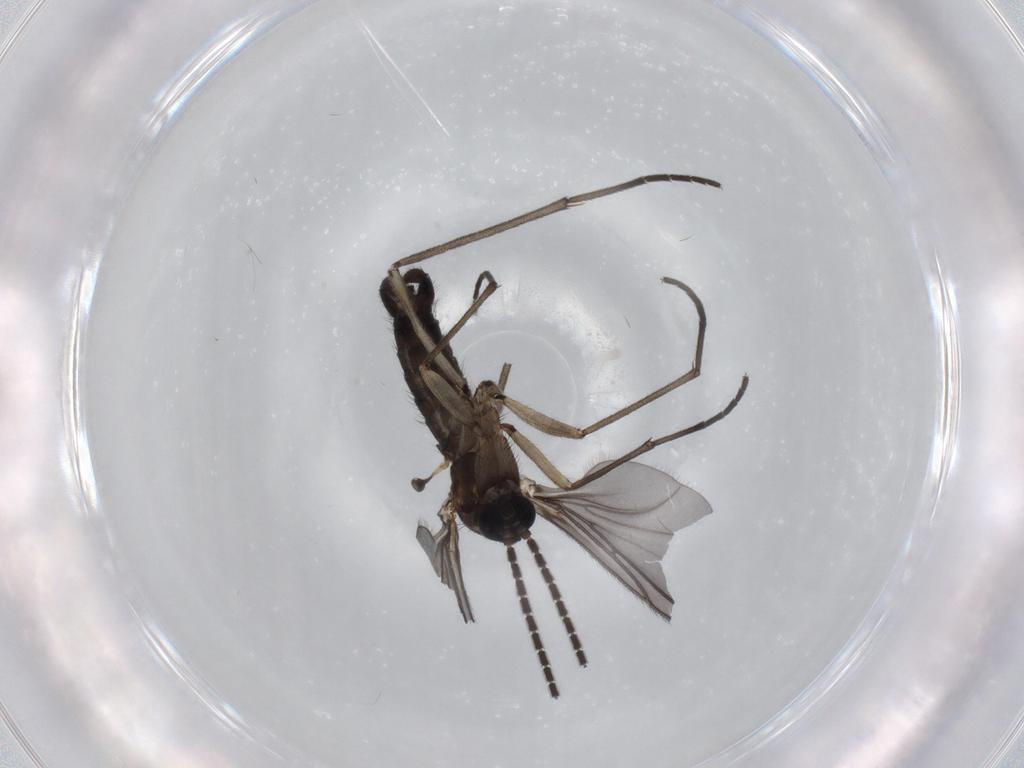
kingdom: Animalia
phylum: Arthropoda
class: Insecta
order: Diptera
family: Sciaridae
